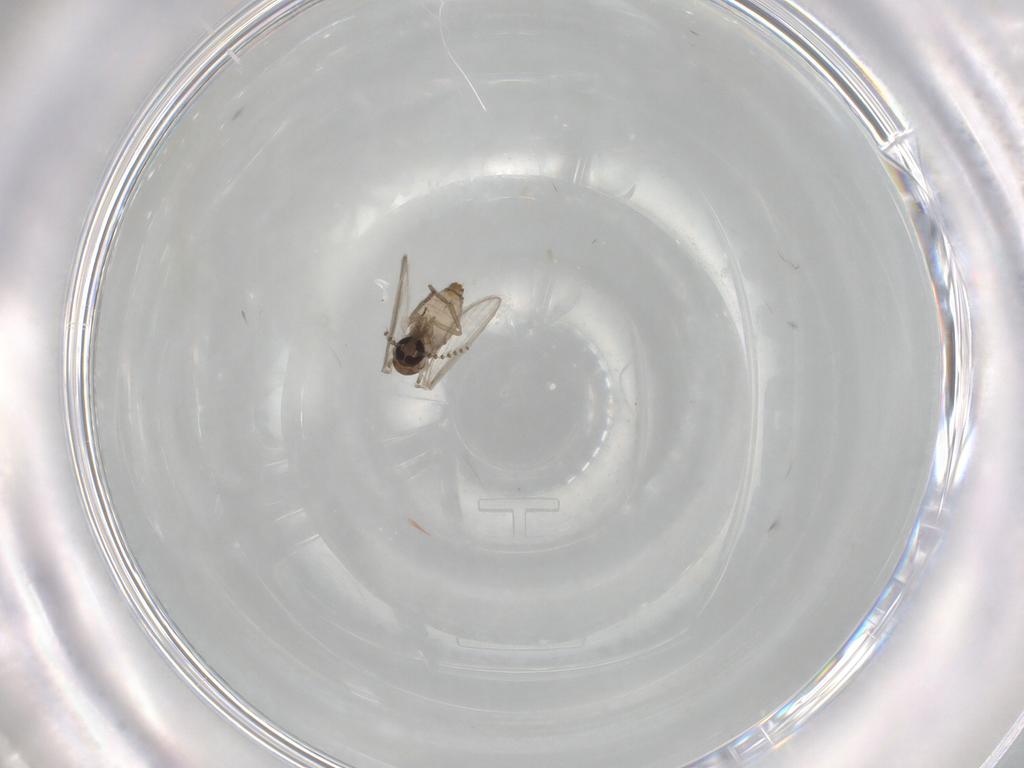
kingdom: Animalia
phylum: Arthropoda
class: Insecta
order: Diptera
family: Psychodidae
